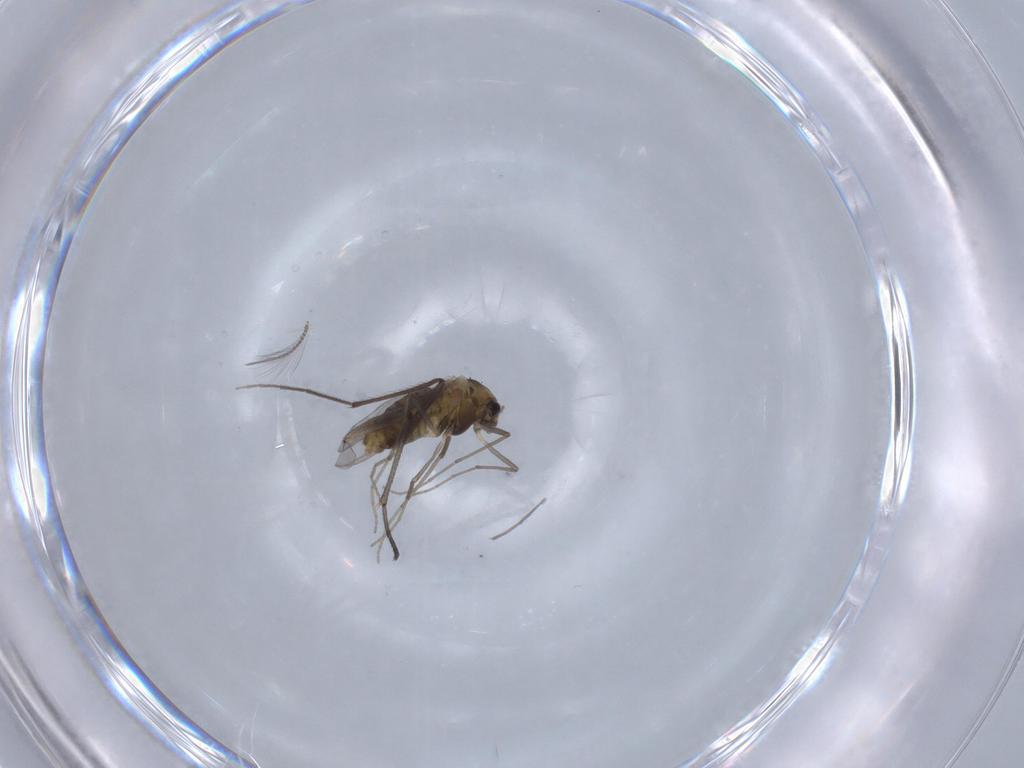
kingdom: Animalia
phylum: Arthropoda
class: Insecta
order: Diptera
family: Chironomidae
